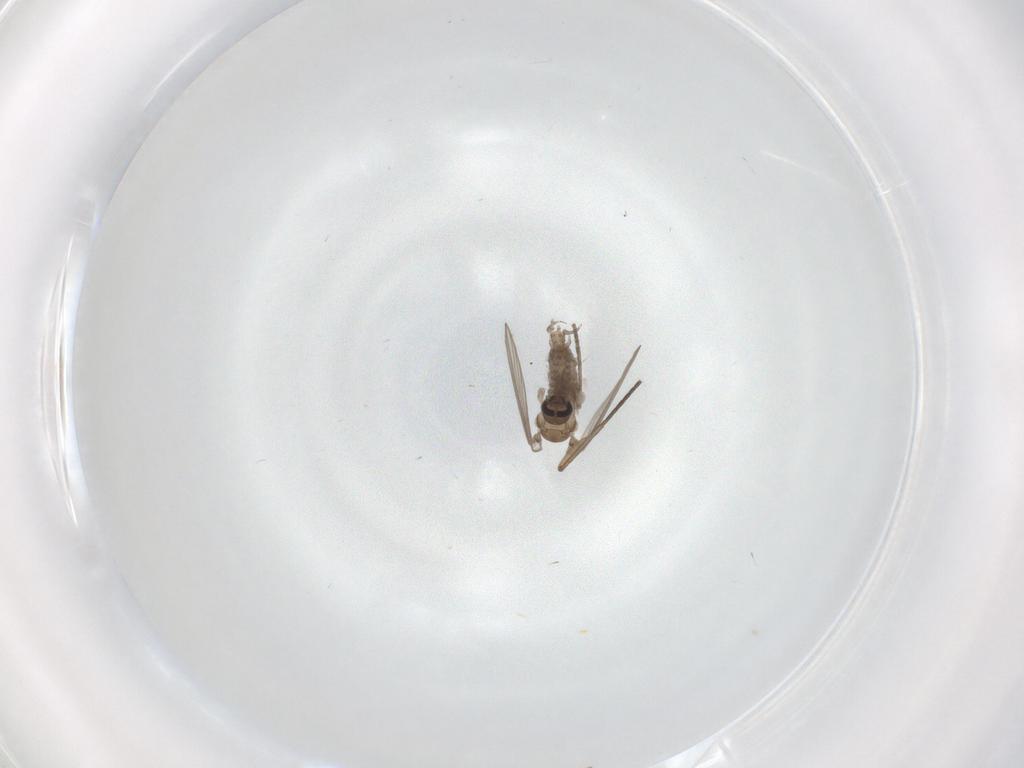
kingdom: Animalia
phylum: Arthropoda
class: Insecta
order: Diptera
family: Psychodidae
